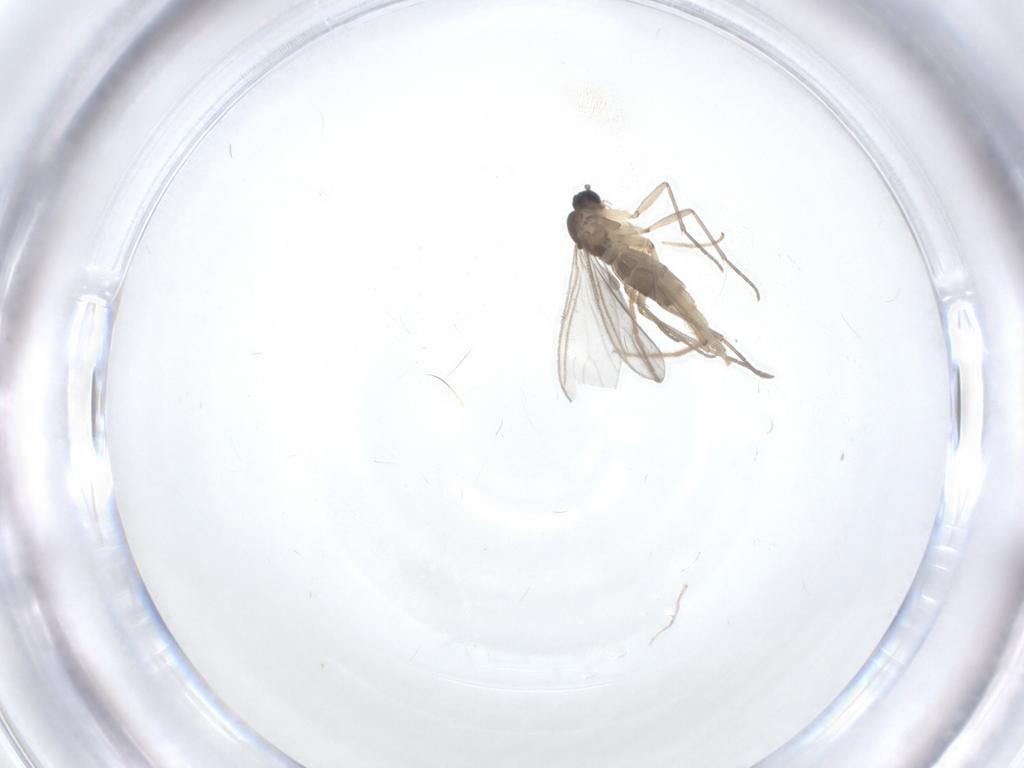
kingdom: Animalia
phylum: Arthropoda
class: Insecta
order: Diptera
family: Sciaridae
